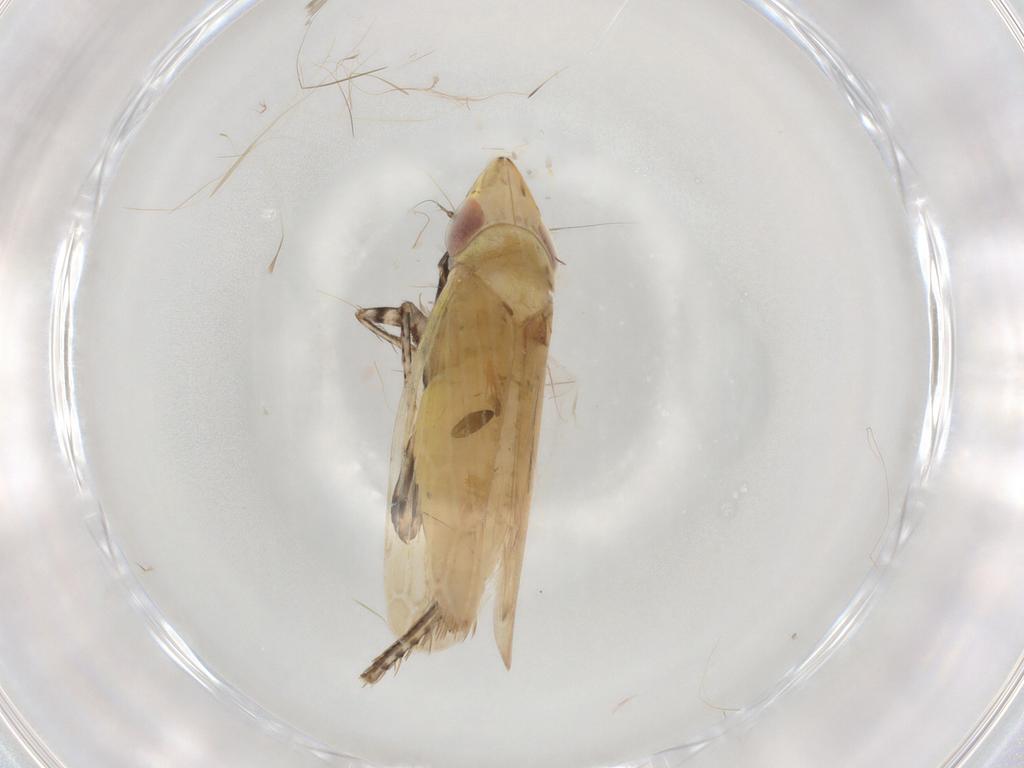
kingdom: Animalia
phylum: Arthropoda
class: Insecta
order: Hemiptera
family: Cicadellidae
